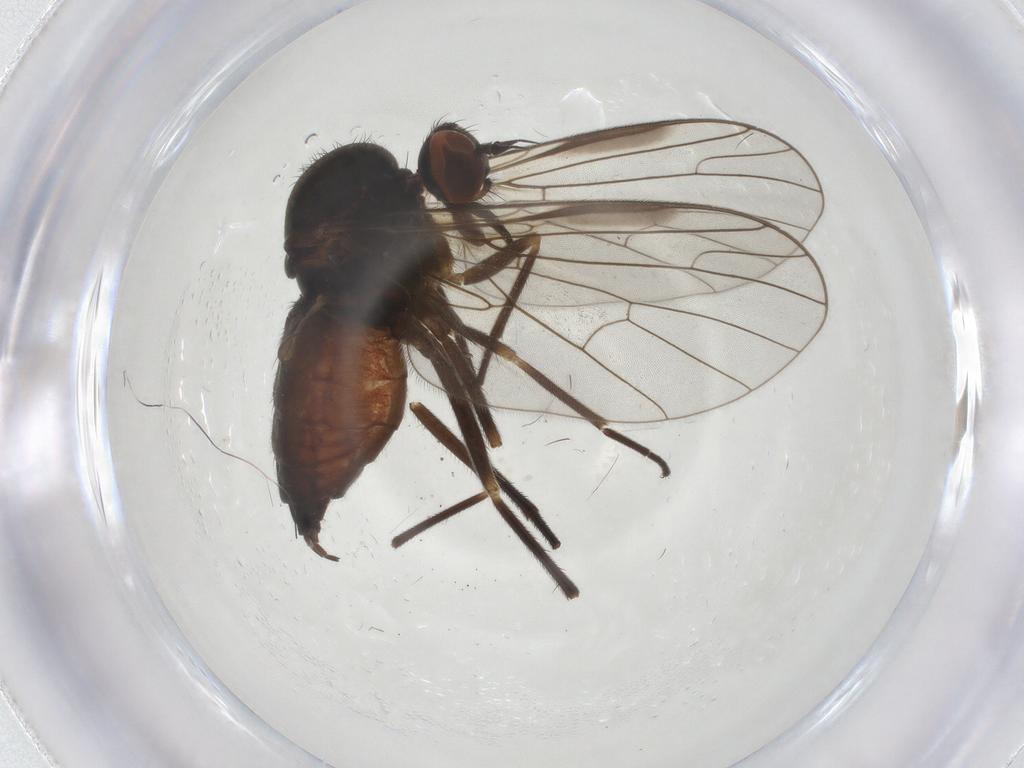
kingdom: Animalia
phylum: Arthropoda
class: Insecta
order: Diptera
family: Empididae
